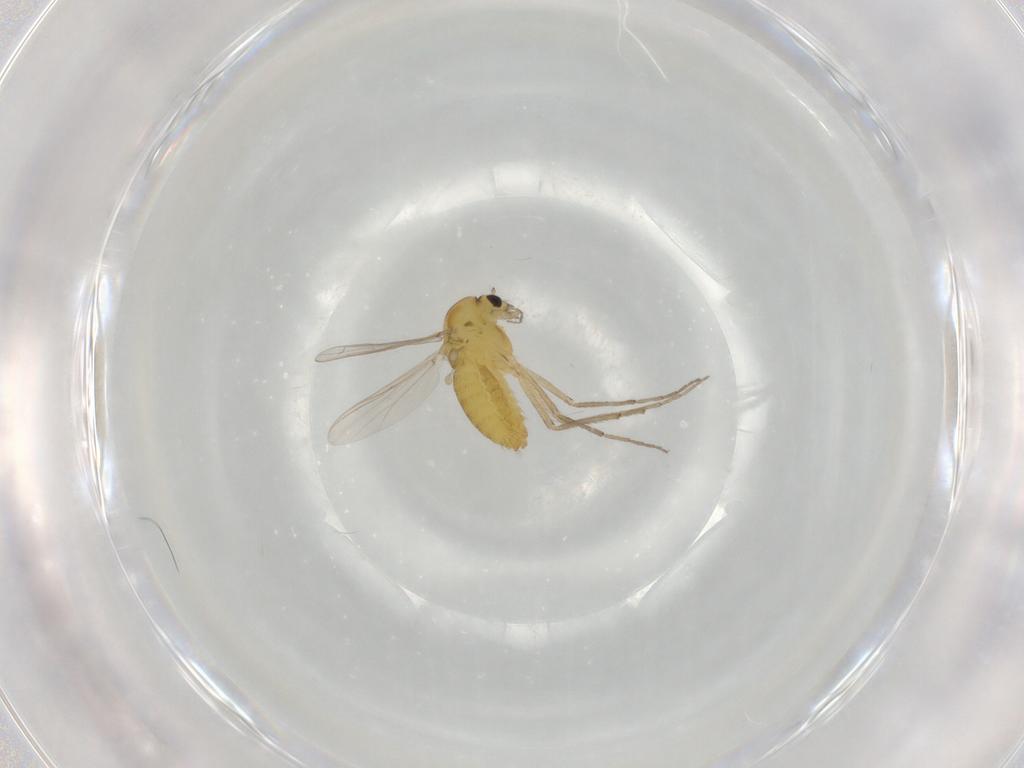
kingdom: Animalia
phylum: Arthropoda
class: Insecta
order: Diptera
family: Chironomidae
